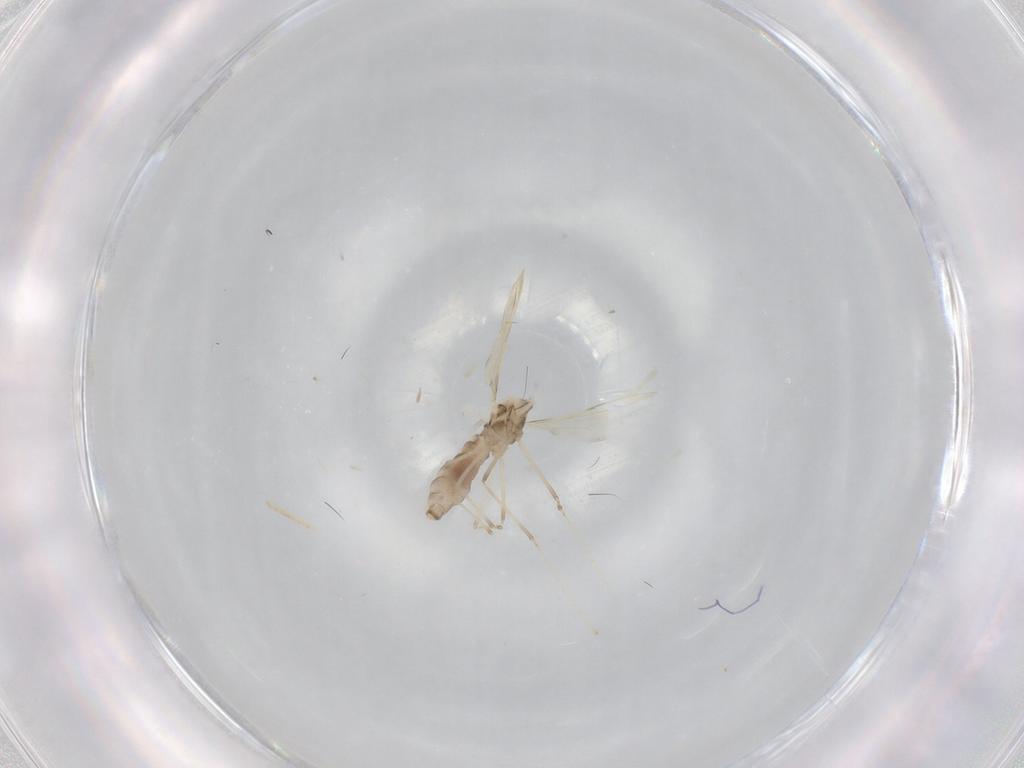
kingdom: Animalia
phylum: Arthropoda
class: Insecta
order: Diptera
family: Cecidomyiidae
